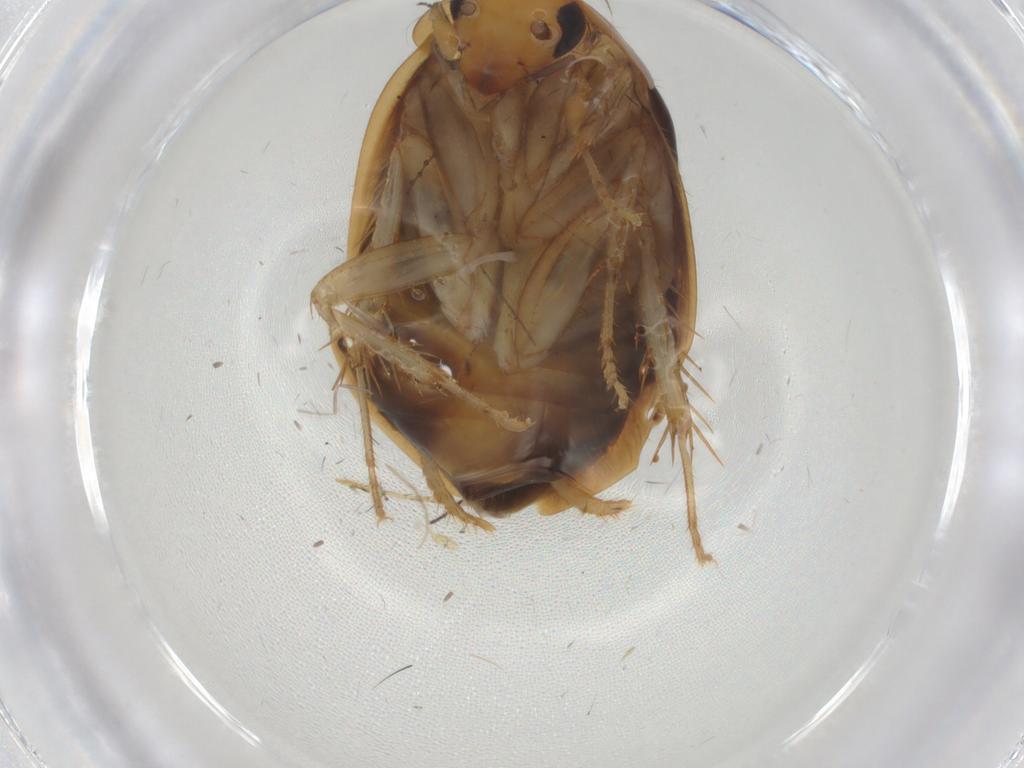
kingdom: Animalia
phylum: Arthropoda
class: Insecta
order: Blattodea
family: Tryonicidae
